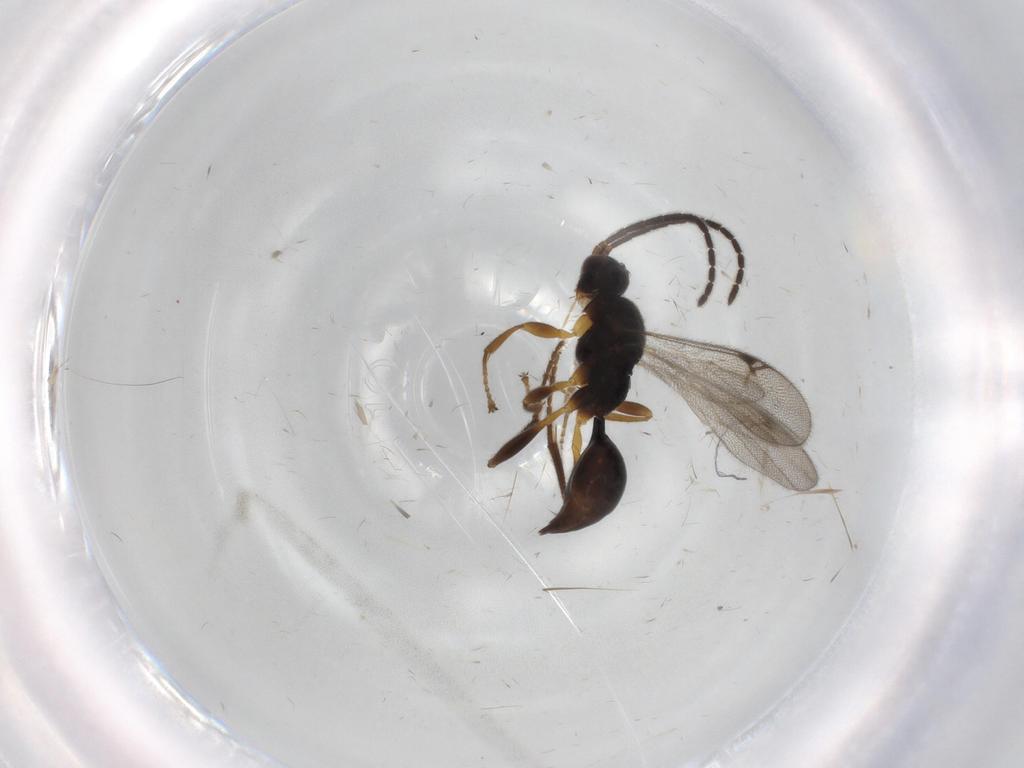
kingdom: Animalia
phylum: Arthropoda
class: Insecta
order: Hymenoptera
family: Proctotrupidae
